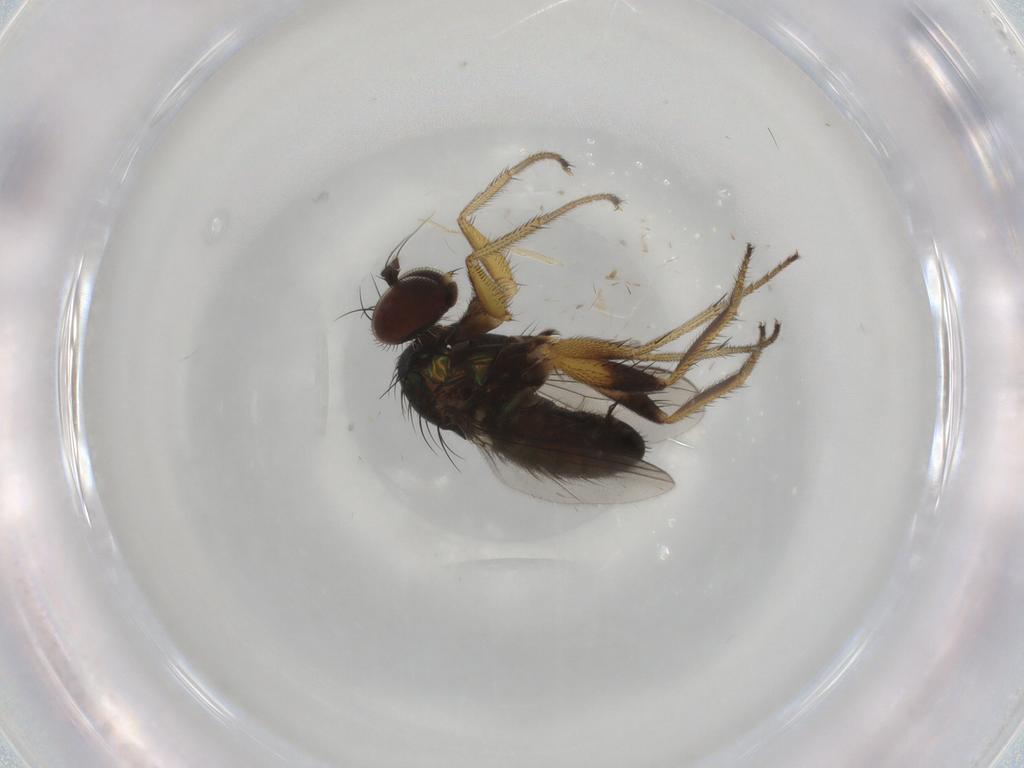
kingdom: Animalia
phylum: Arthropoda
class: Insecta
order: Diptera
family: Dolichopodidae
